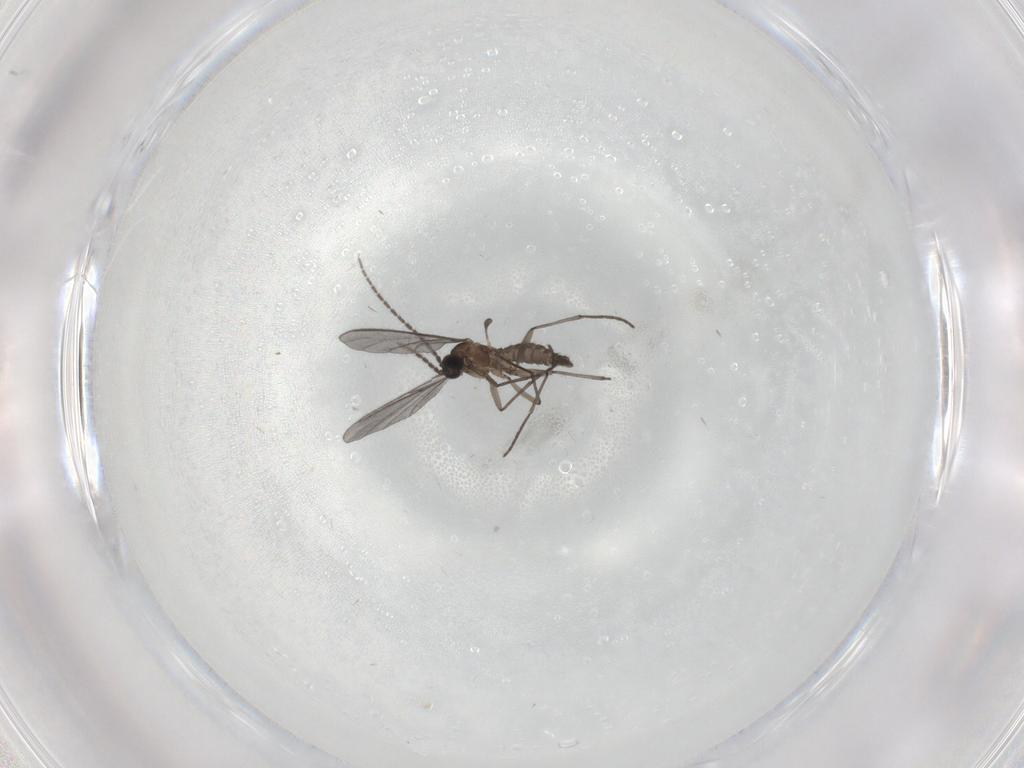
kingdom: Animalia
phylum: Arthropoda
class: Insecta
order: Diptera
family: Sciaridae
